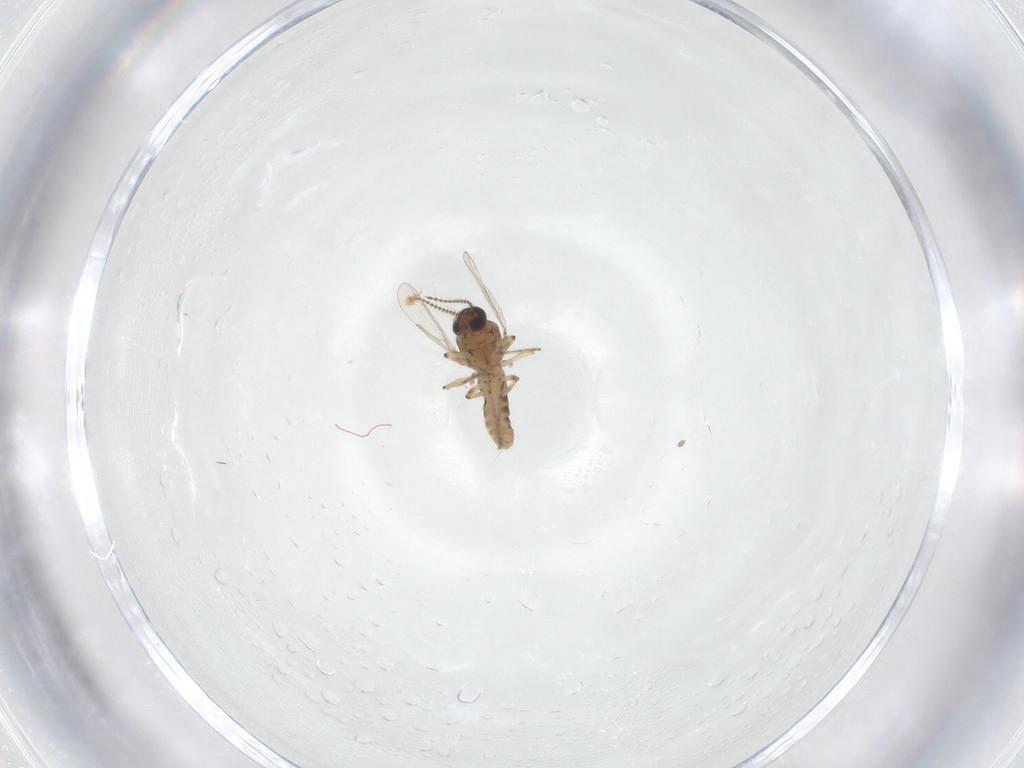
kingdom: Animalia
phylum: Arthropoda
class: Insecta
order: Diptera
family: Ceratopogonidae
